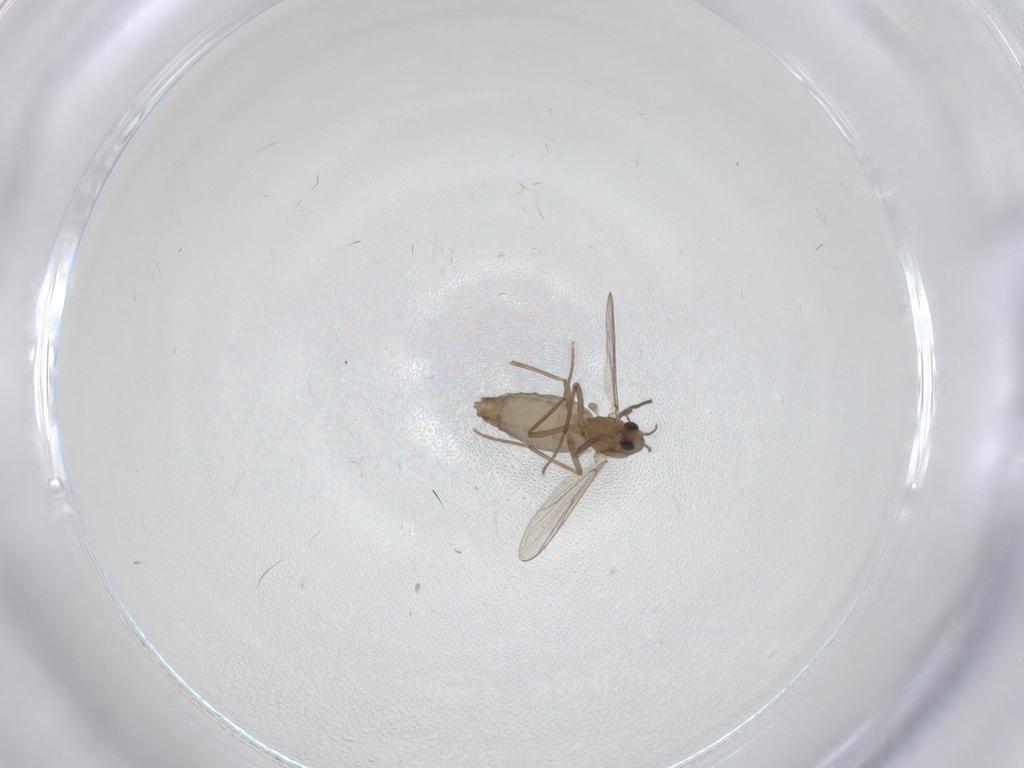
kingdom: Animalia
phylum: Arthropoda
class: Insecta
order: Diptera
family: Chironomidae
